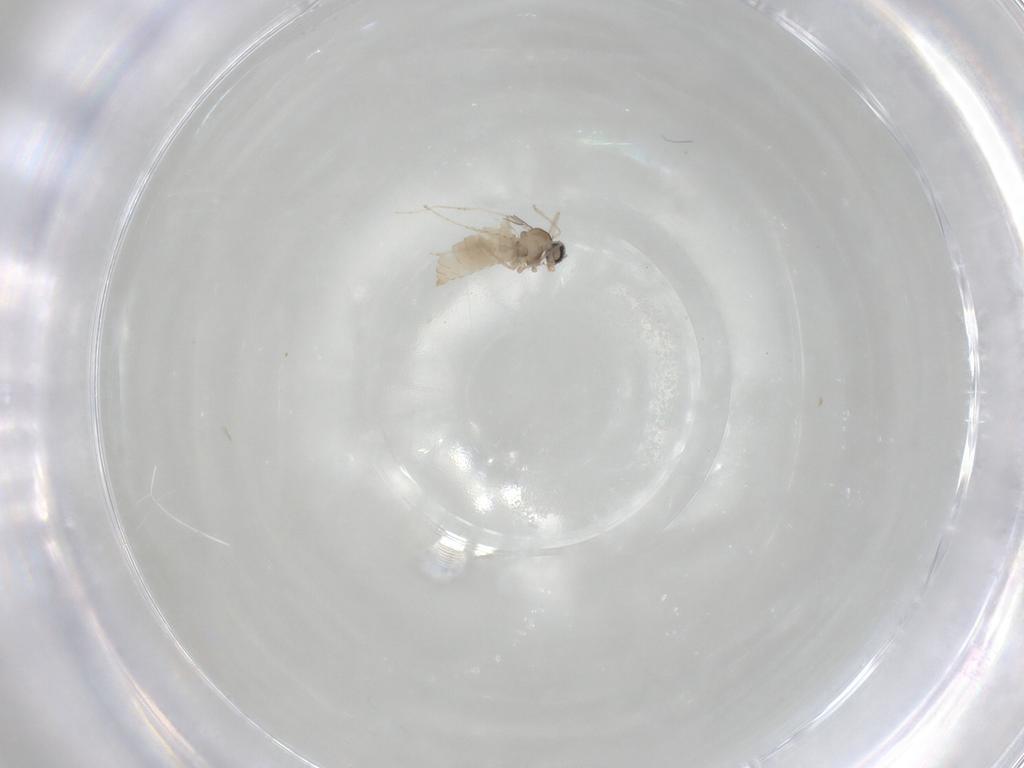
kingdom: Animalia
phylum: Arthropoda
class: Insecta
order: Diptera
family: Cecidomyiidae
